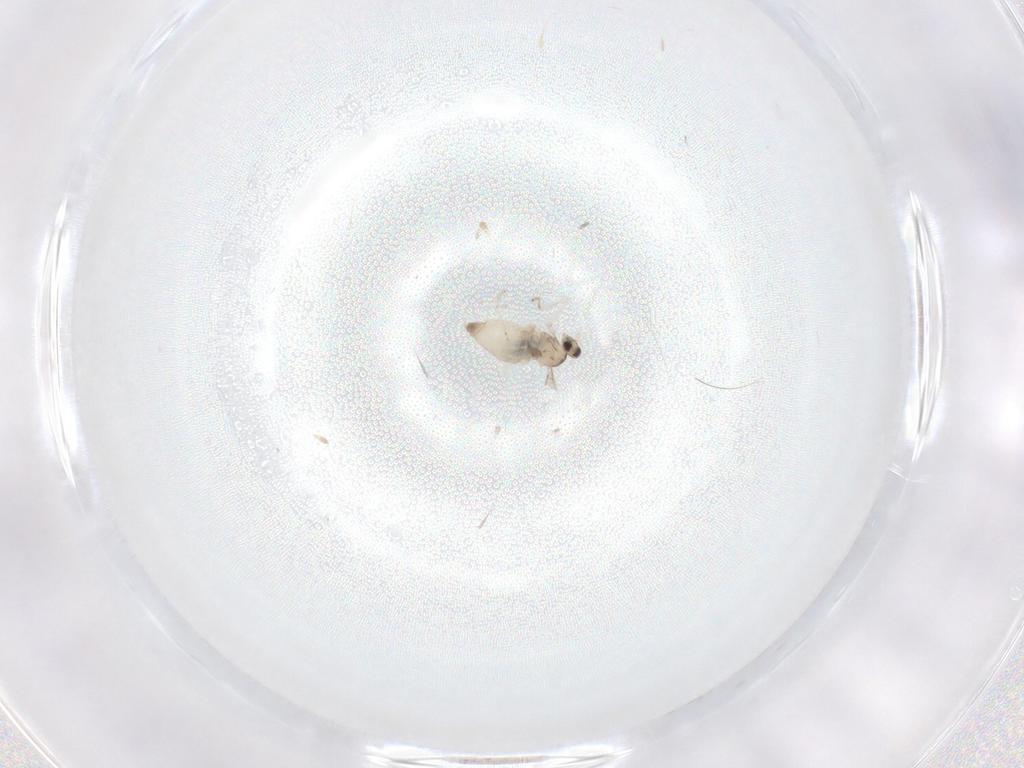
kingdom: Animalia
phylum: Arthropoda
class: Insecta
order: Diptera
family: Cecidomyiidae
